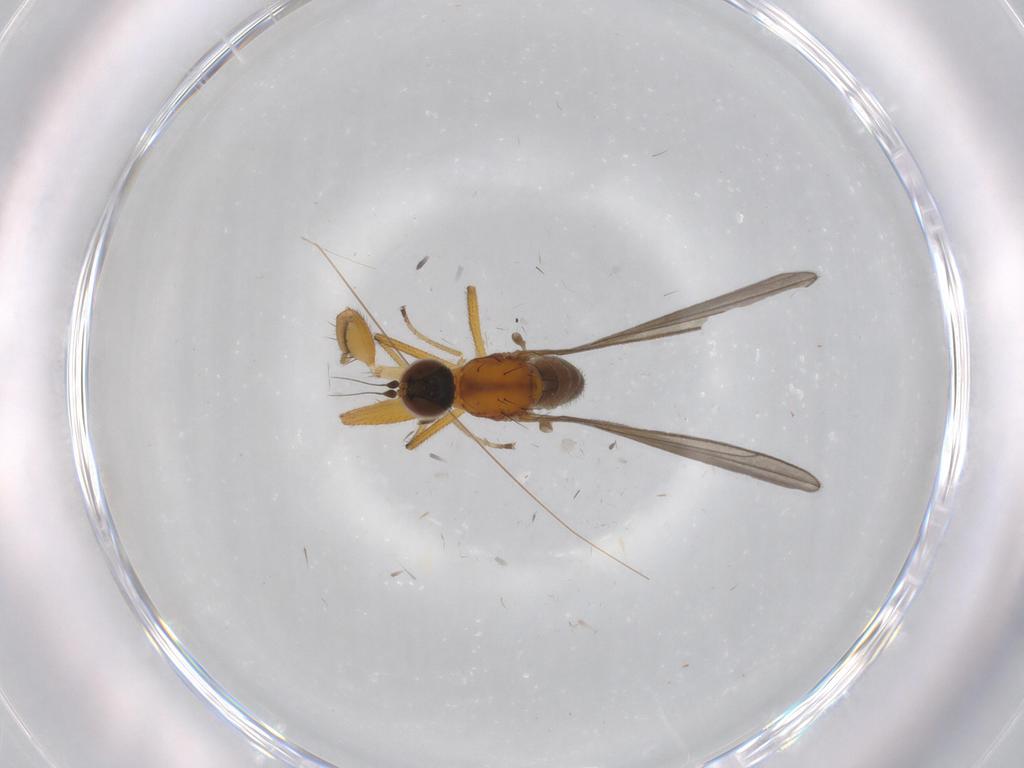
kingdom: Animalia
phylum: Arthropoda
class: Insecta
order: Diptera
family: Empididae
